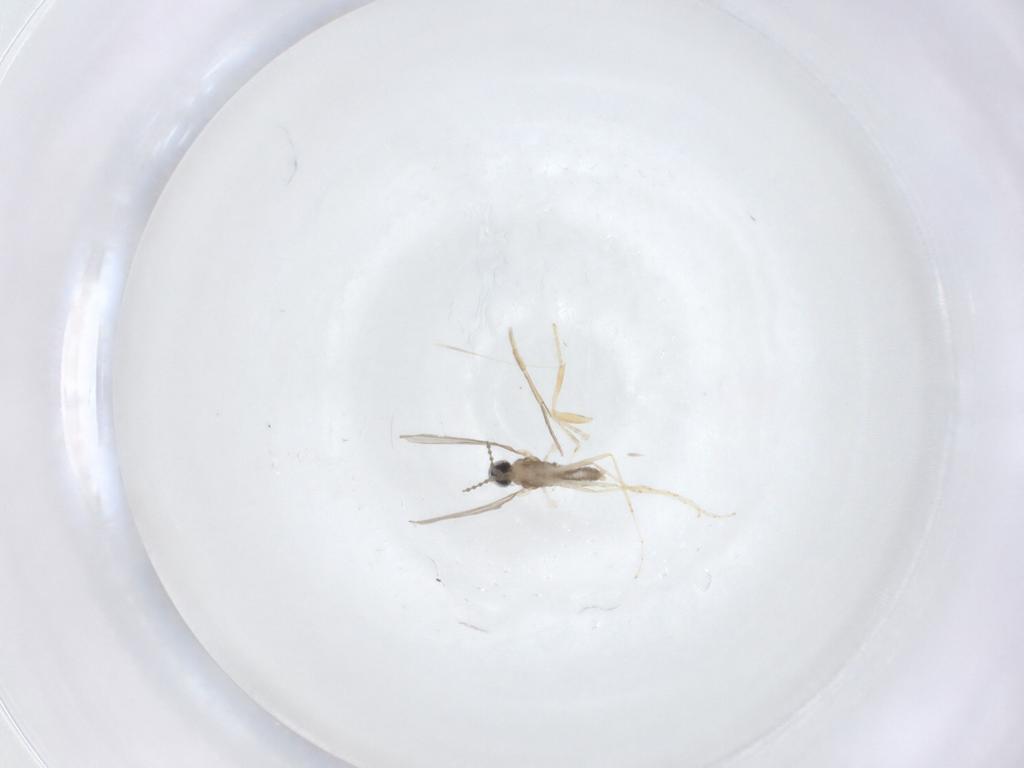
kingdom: Animalia
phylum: Arthropoda
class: Insecta
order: Diptera
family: Cecidomyiidae
